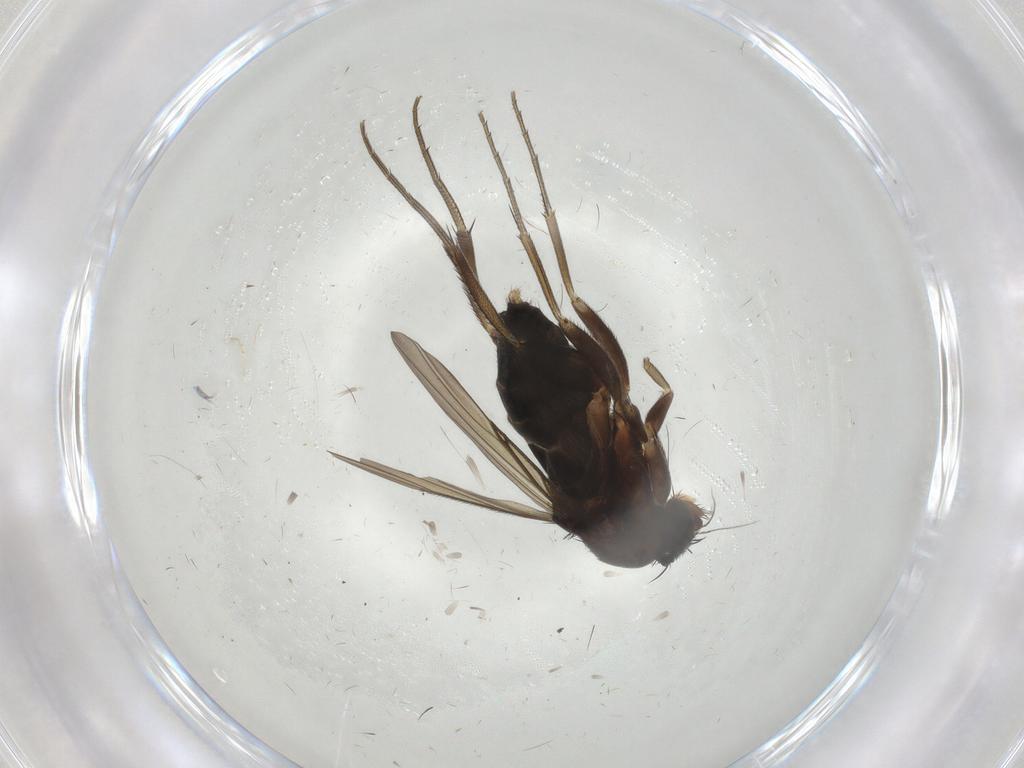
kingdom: Animalia
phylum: Arthropoda
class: Insecta
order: Diptera
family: Phoridae
